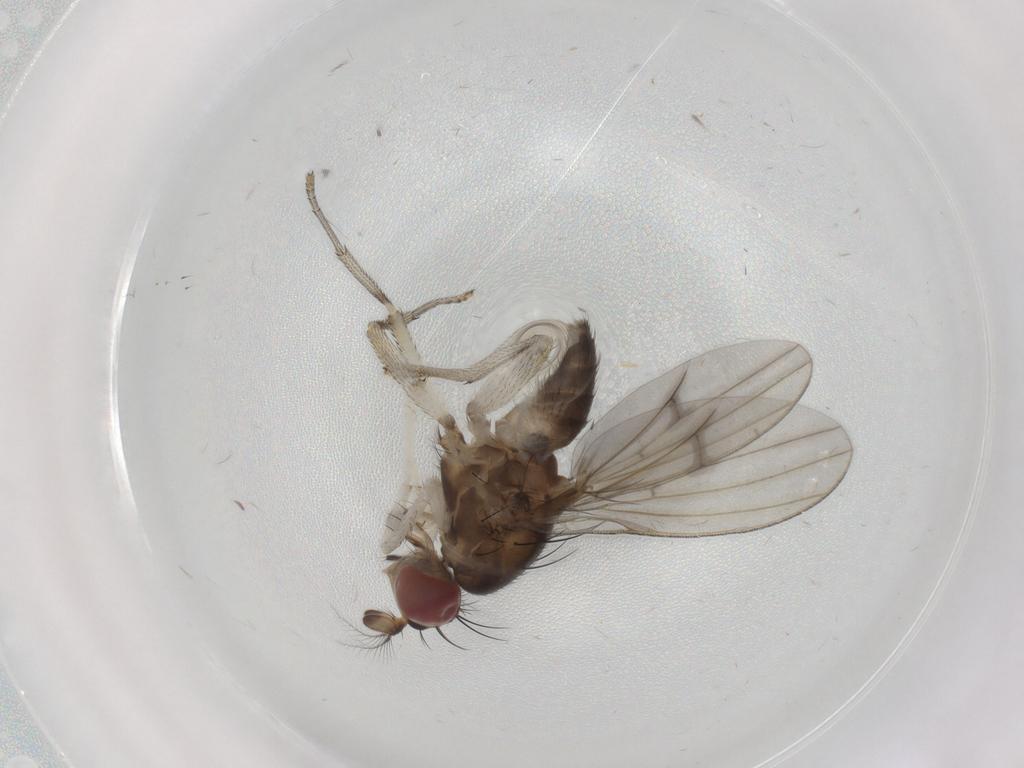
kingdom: Animalia
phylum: Arthropoda
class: Insecta
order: Diptera
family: Lauxaniidae
